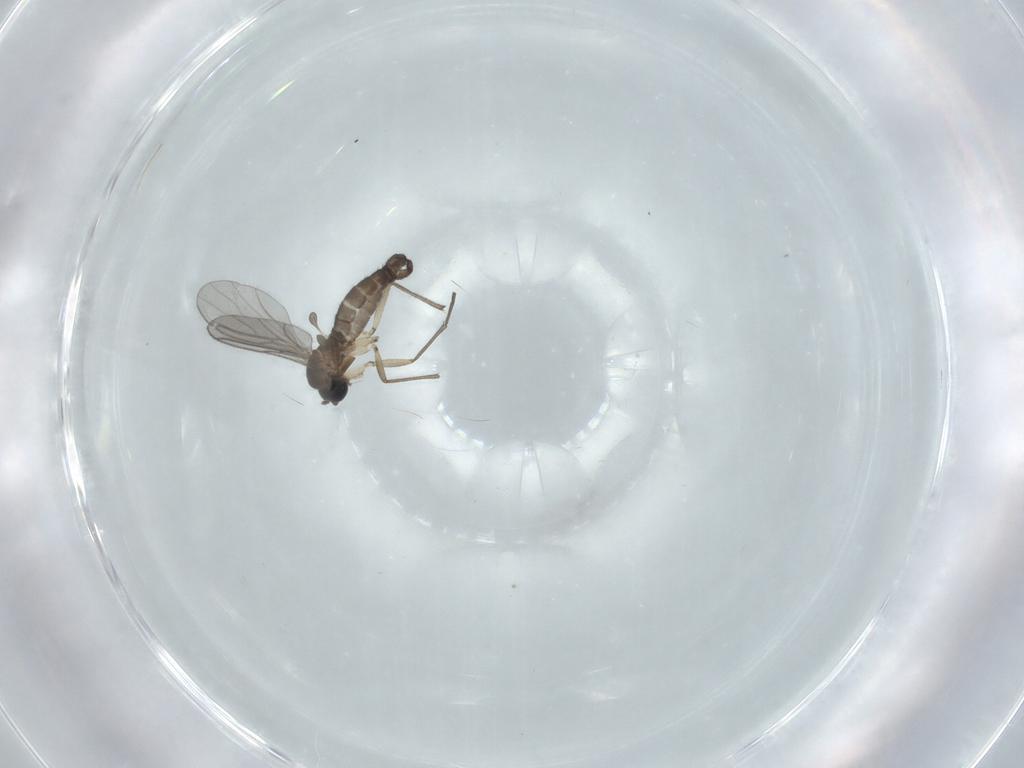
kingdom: Animalia
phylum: Arthropoda
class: Insecta
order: Diptera
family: Sciaridae
